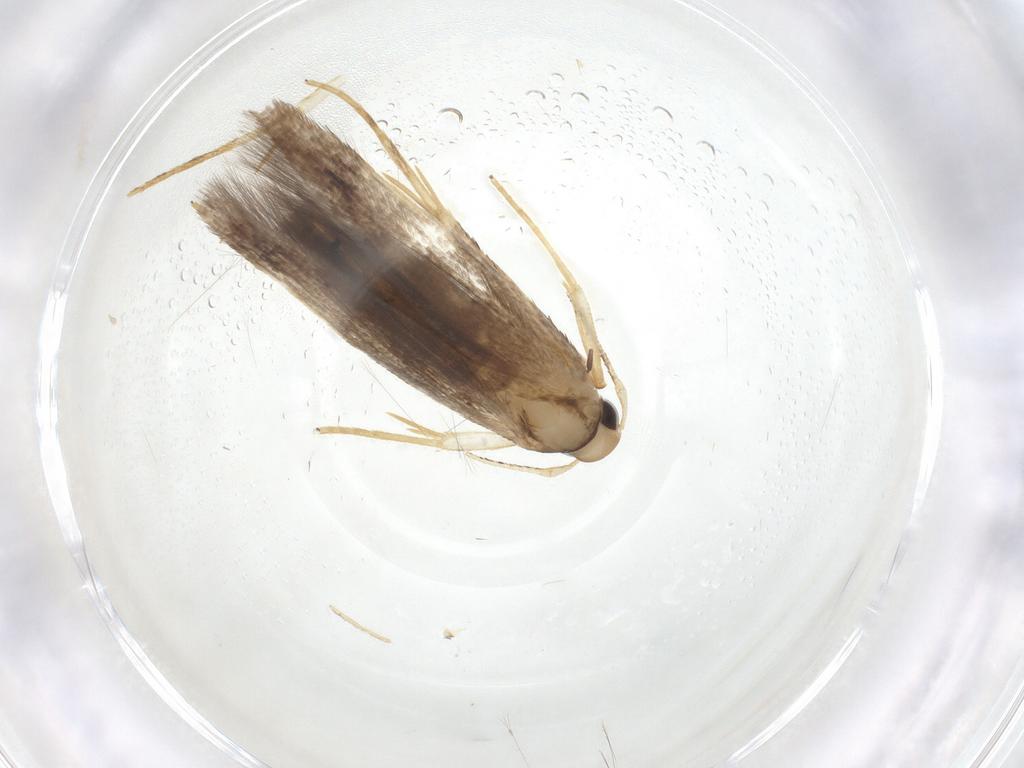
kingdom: Animalia
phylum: Arthropoda
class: Insecta
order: Lepidoptera
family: Cosmopterigidae
